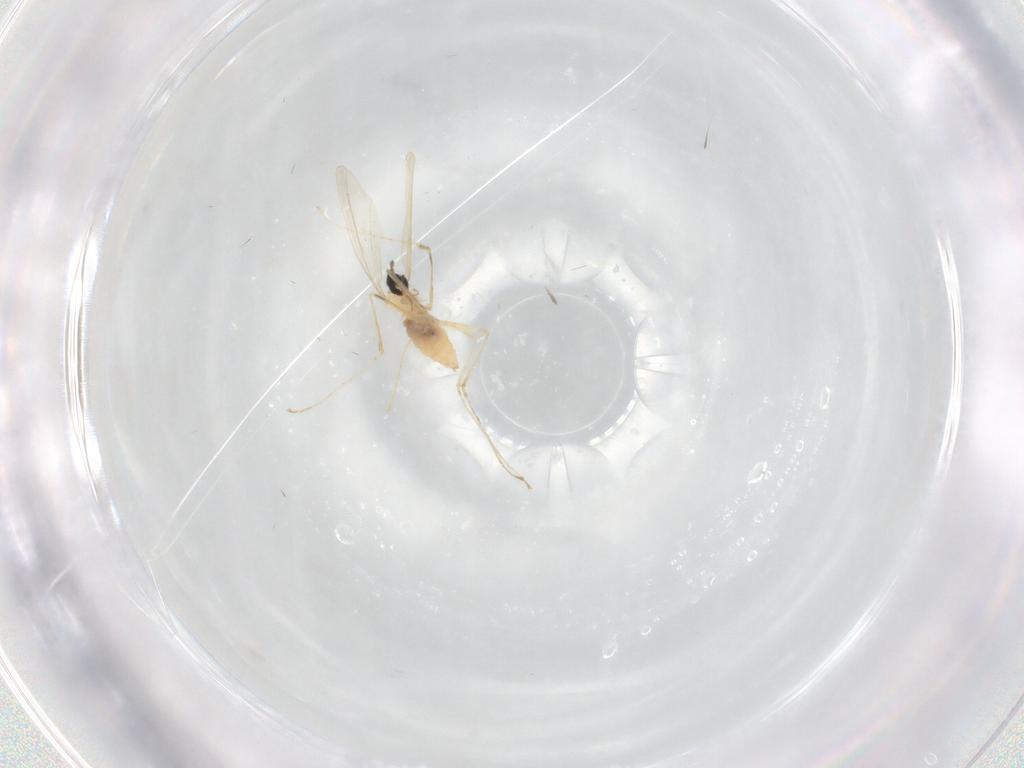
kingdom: Animalia
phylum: Arthropoda
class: Insecta
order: Diptera
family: Cecidomyiidae
